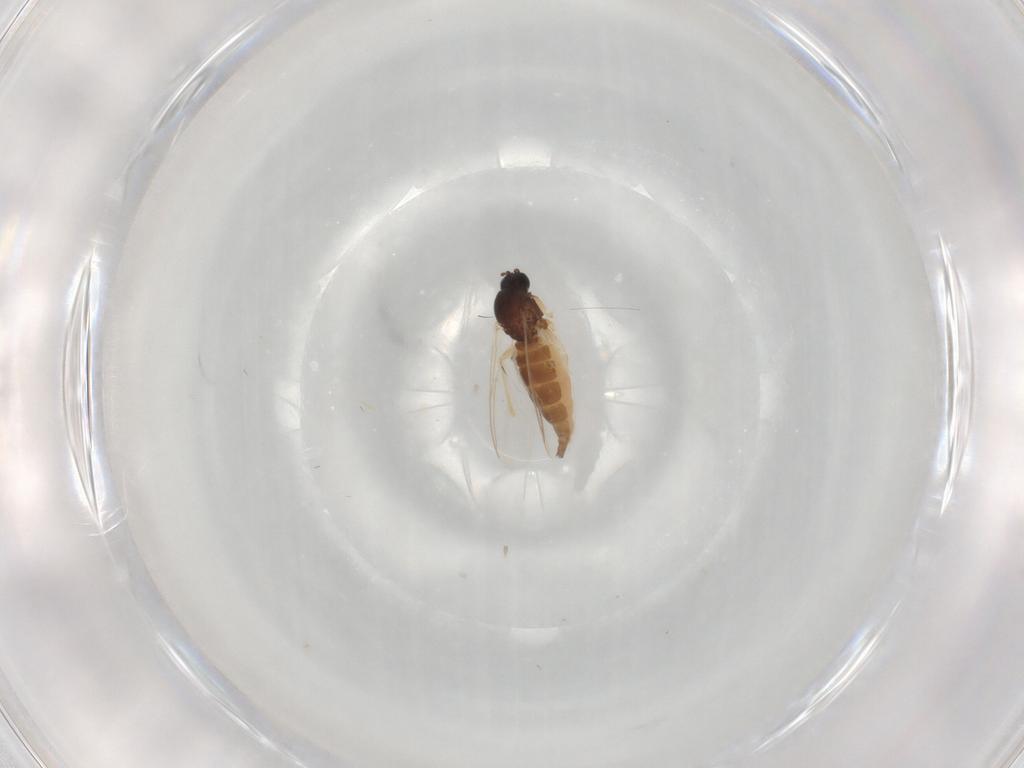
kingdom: Animalia
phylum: Arthropoda
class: Insecta
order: Diptera
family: Sciaridae
